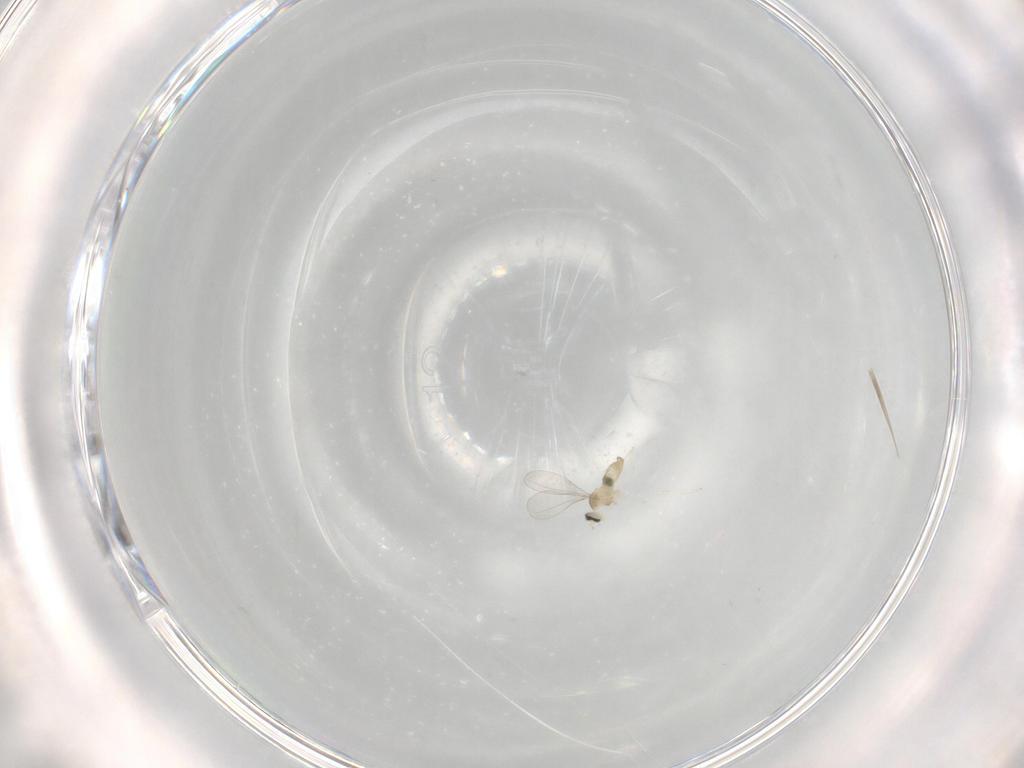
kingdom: Animalia
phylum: Arthropoda
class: Insecta
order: Diptera
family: Cecidomyiidae
